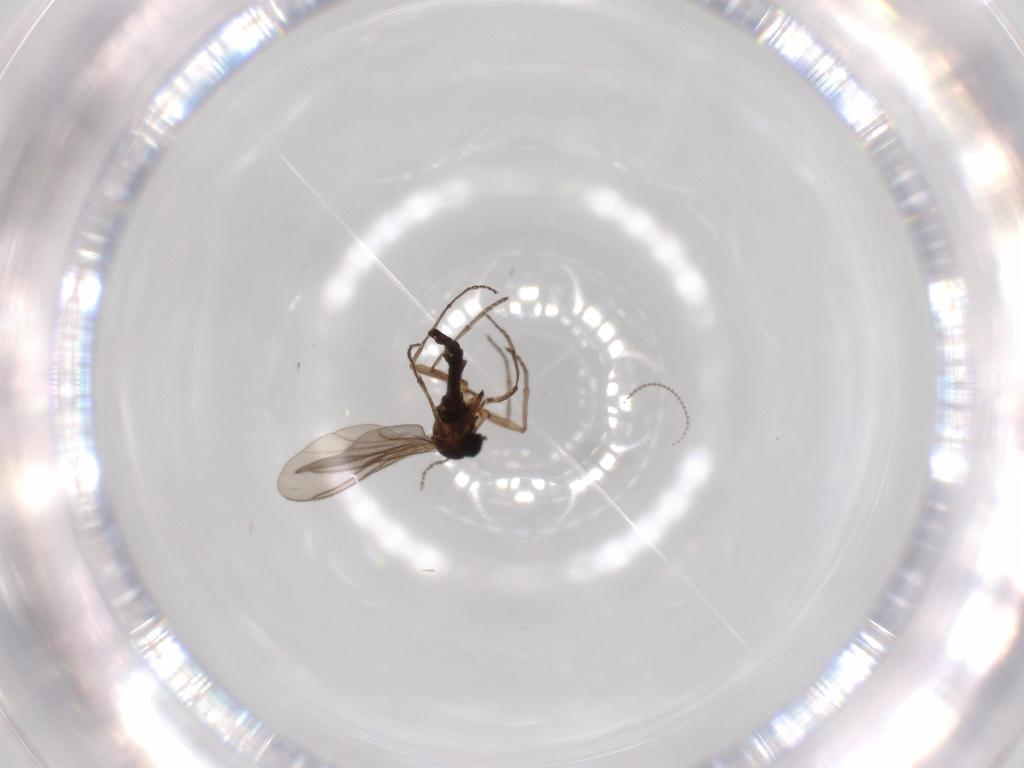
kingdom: Animalia
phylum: Arthropoda
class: Insecta
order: Diptera
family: Sciaridae
